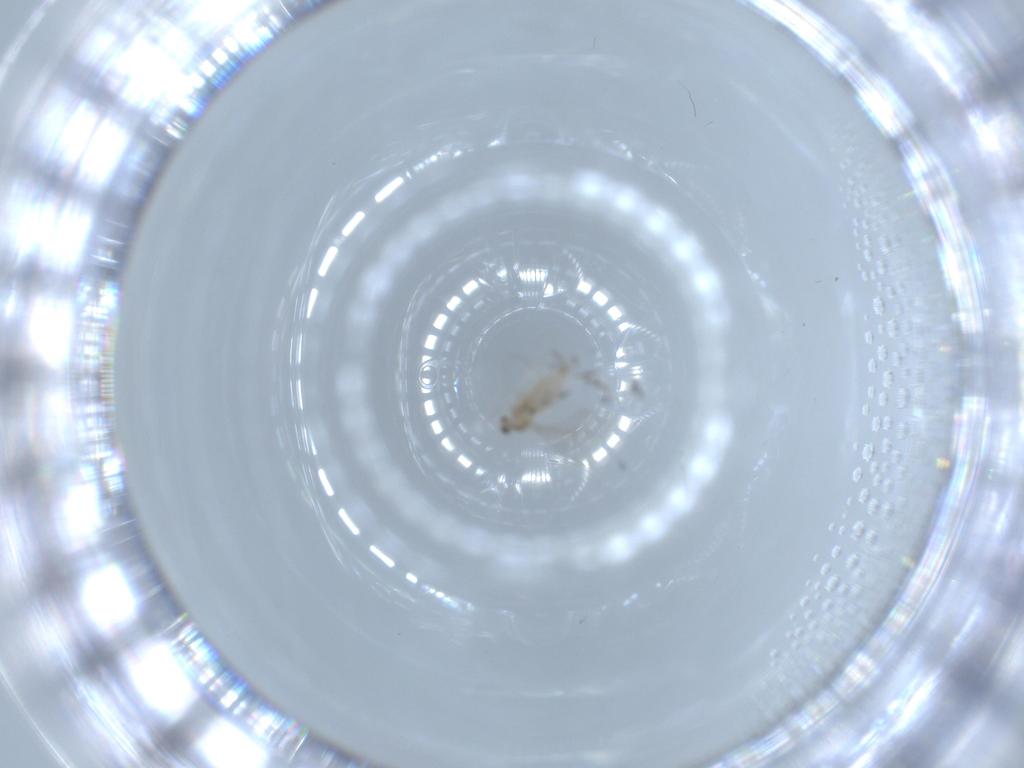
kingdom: Animalia
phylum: Arthropoda
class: Insecta
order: Diptera
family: Cecidomyiidae
